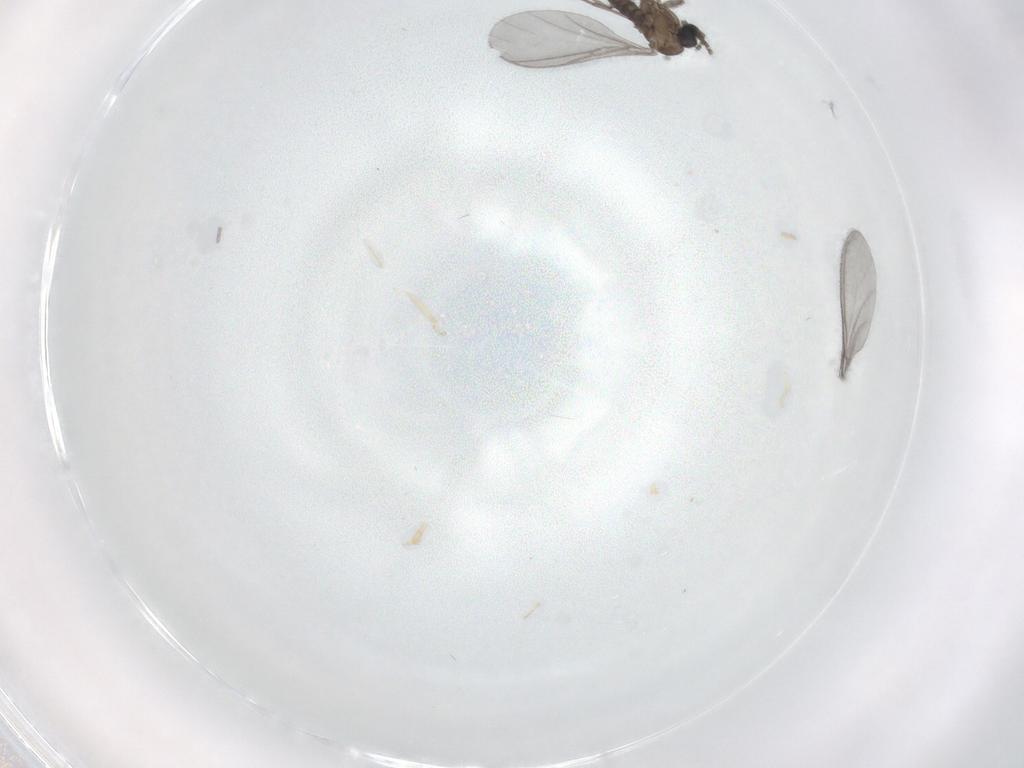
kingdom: Animalia
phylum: Arthropoda
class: Insecta
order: Diptera
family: Sciaridae
